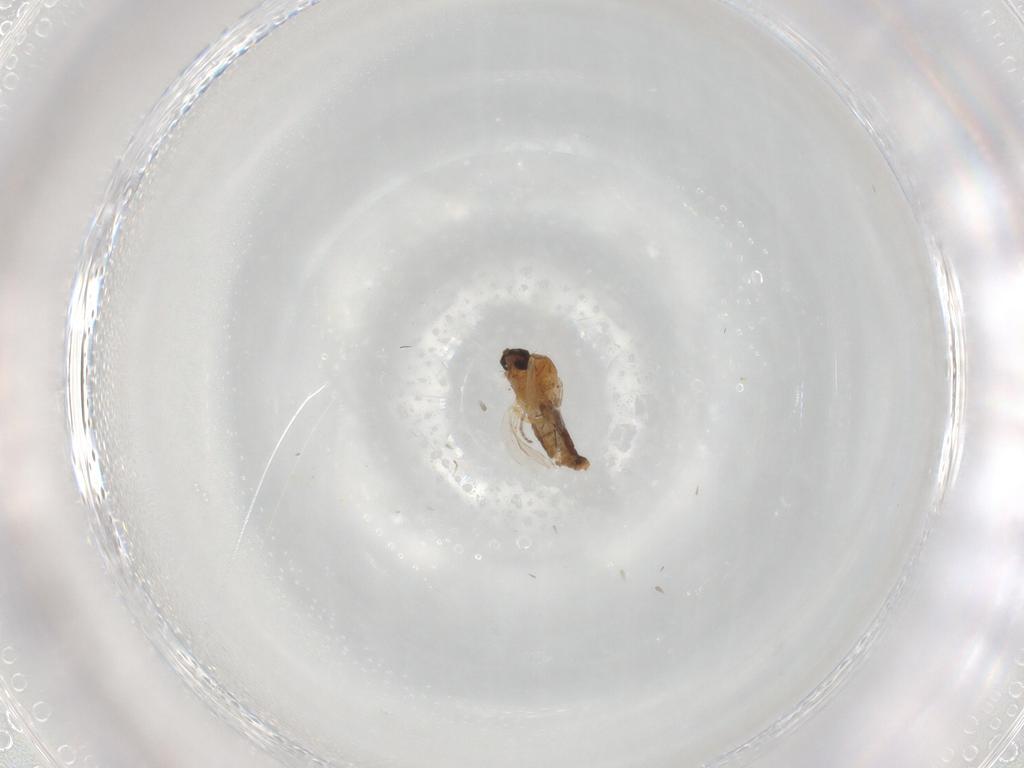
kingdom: Animalia
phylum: Arthropoda
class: Insecta
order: Diptera
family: Ceratopogonidae
